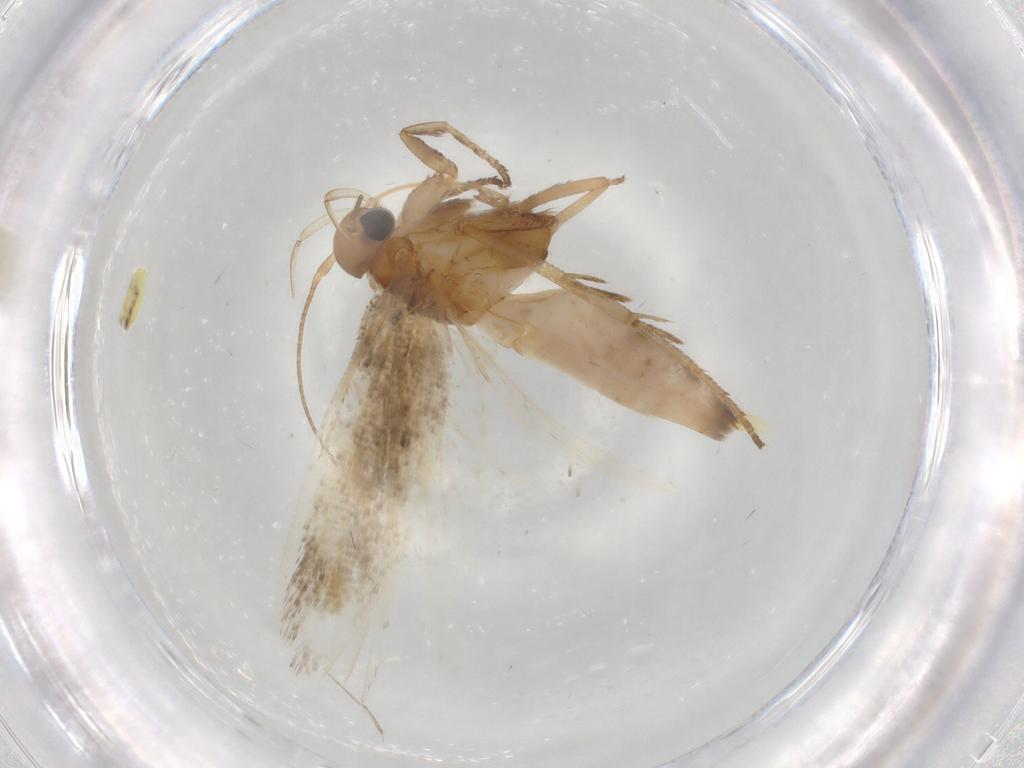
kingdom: Animalia
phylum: Arthropoda
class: Insecta
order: Lepidoptera
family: Gelechiidae
